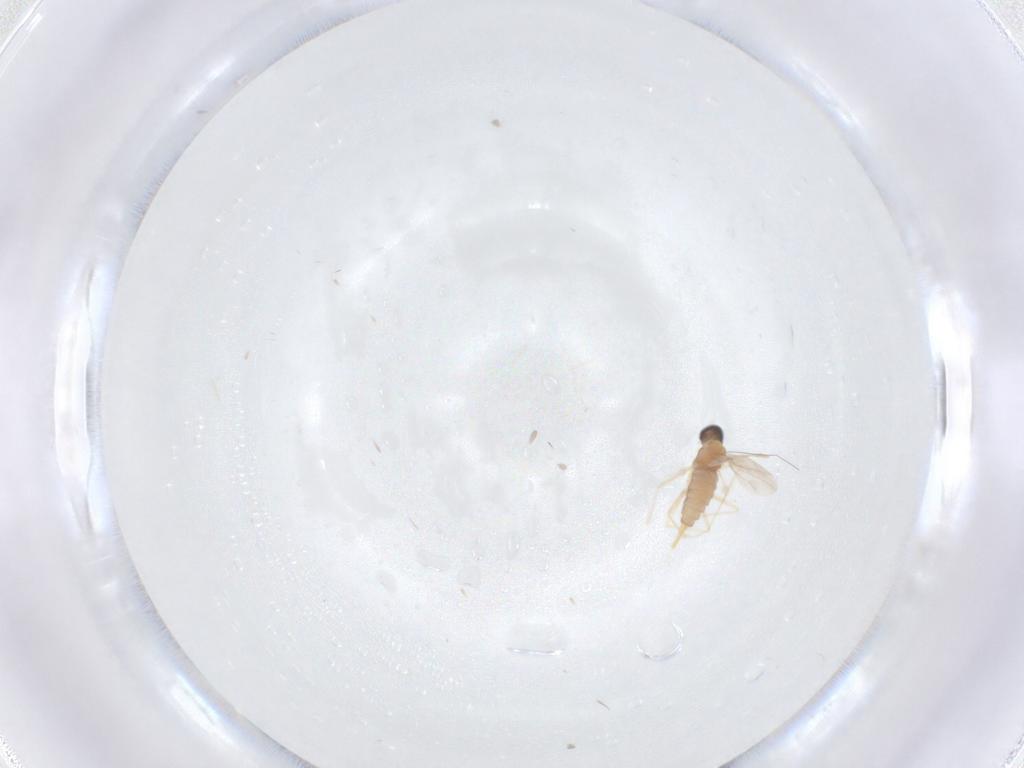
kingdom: Animalia
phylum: Arthropoda
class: Insecta
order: Diptera
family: Cecidomyiidae
